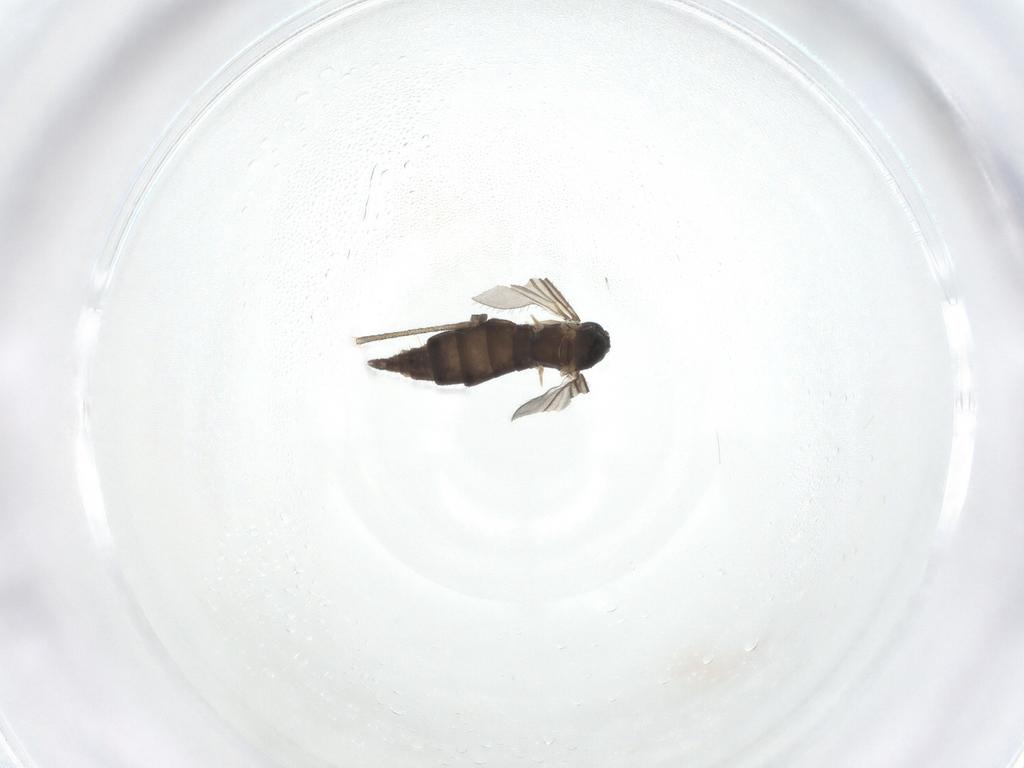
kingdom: Animalia
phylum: Arthropoda
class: Insecta
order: Diptera
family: Sciaridae
